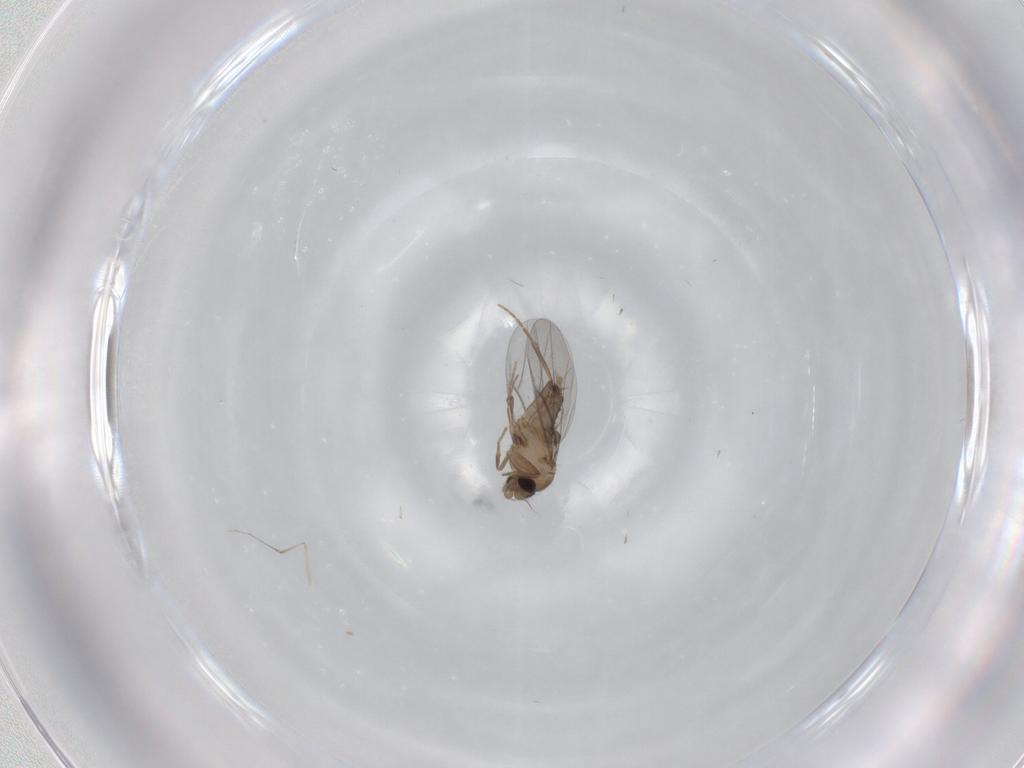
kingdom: Animalia
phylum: Arthropoda
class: Insecta
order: Diptera
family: Cecidomyiidae
